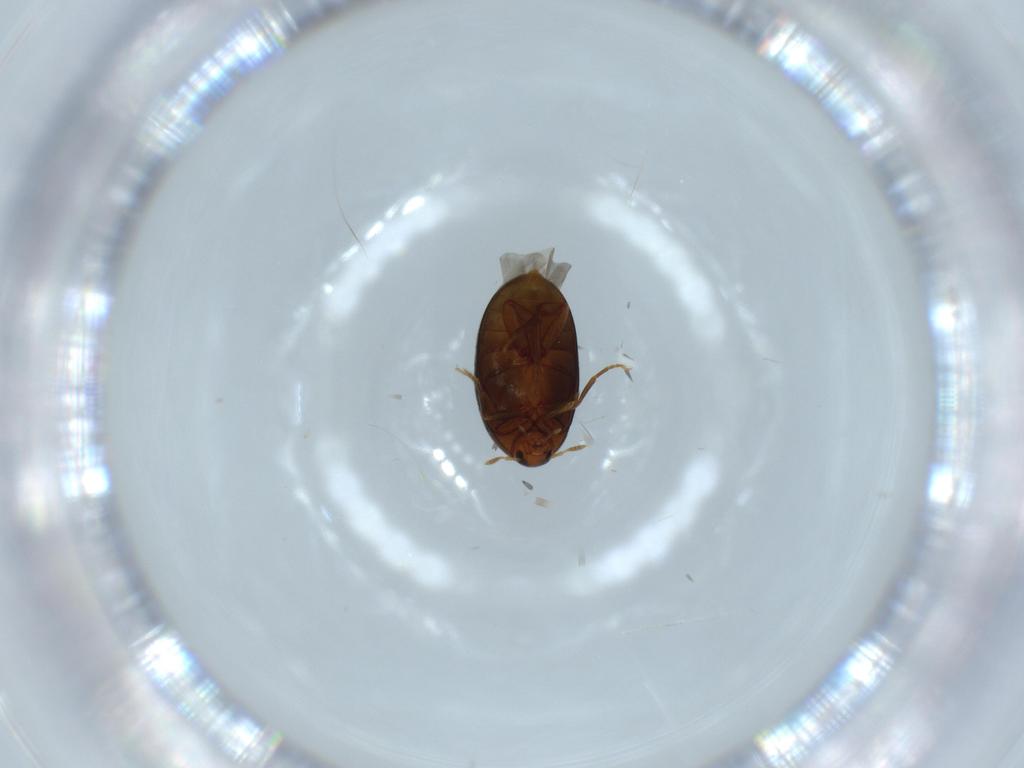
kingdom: Animalia
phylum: Arthropoda
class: Insecta
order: Coleoptera
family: Melandryidae
